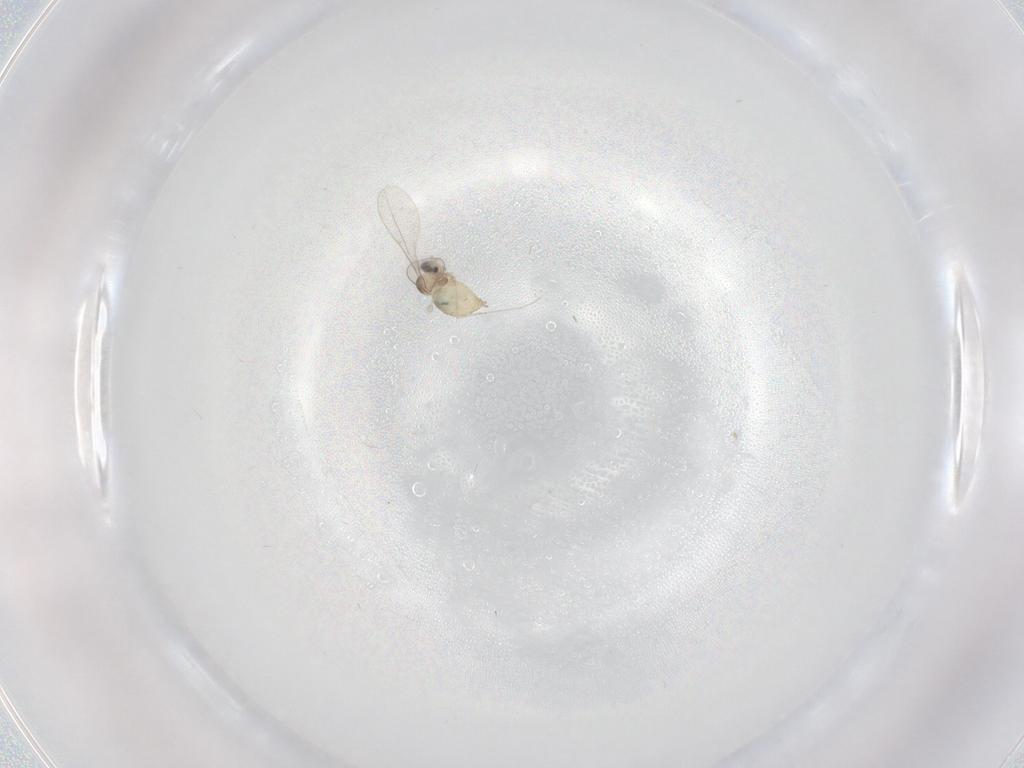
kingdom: Animalia
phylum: Arthropoda
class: Insecta
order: Diptera
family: Cecidomyiidae
